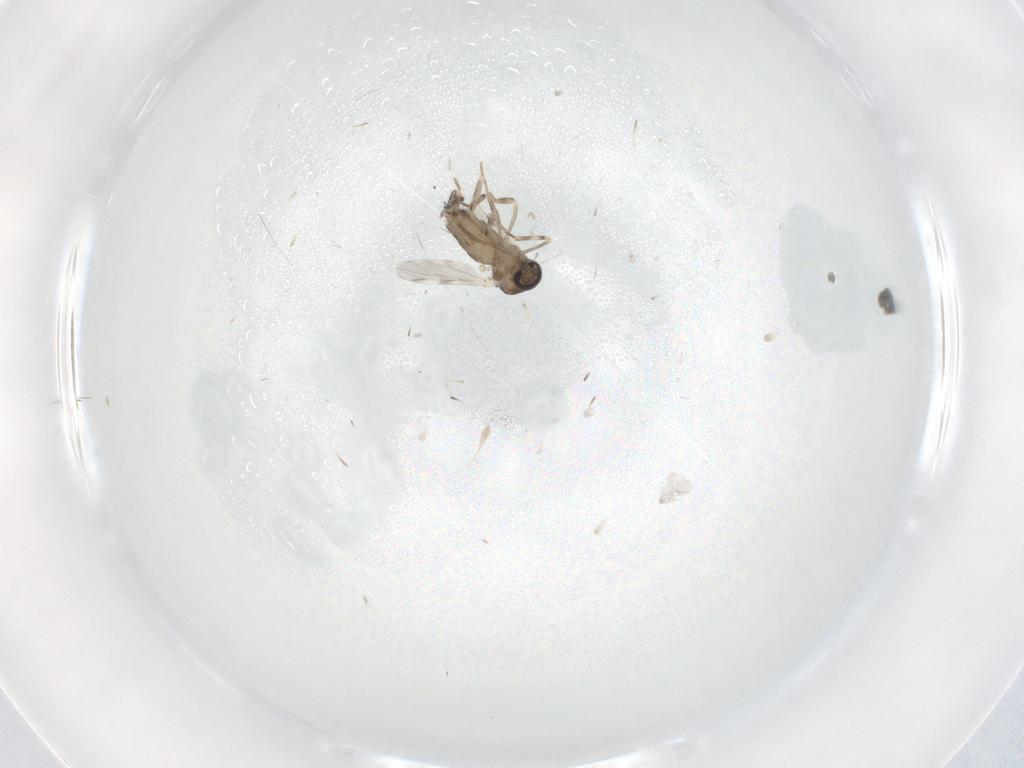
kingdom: Animalia
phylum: Arthropoda
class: Insecta
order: Diptera
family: Ceratopogonidae
